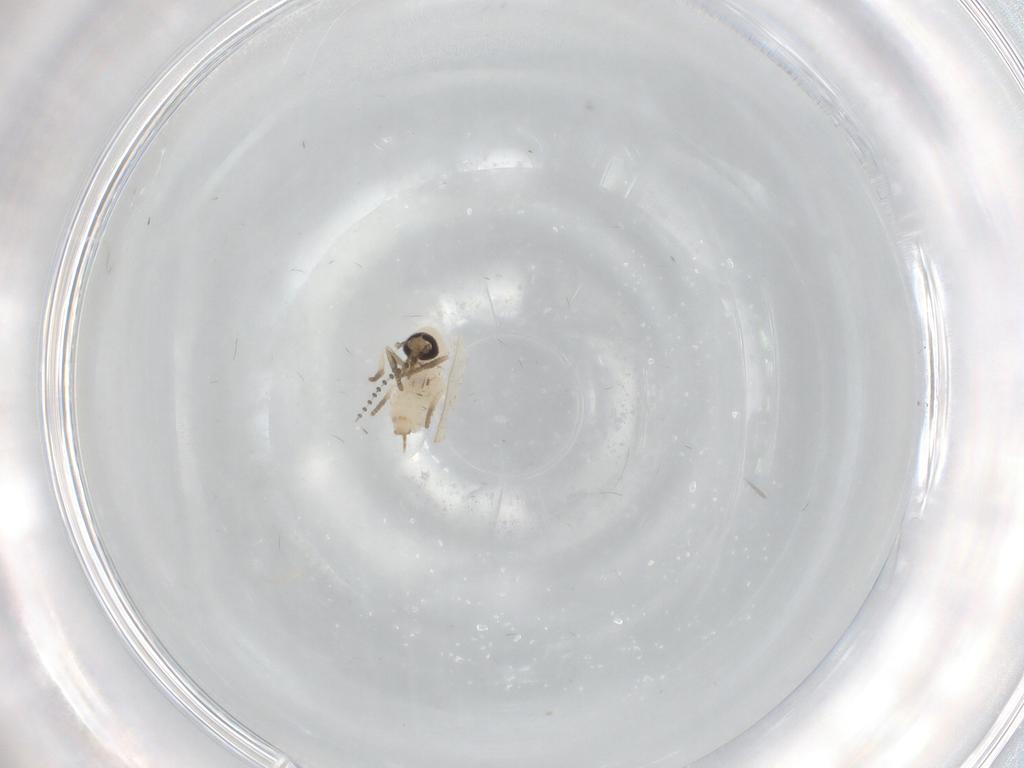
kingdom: Animalia
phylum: Arthropoda
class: Insecta
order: Diptera
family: Psychodidae
